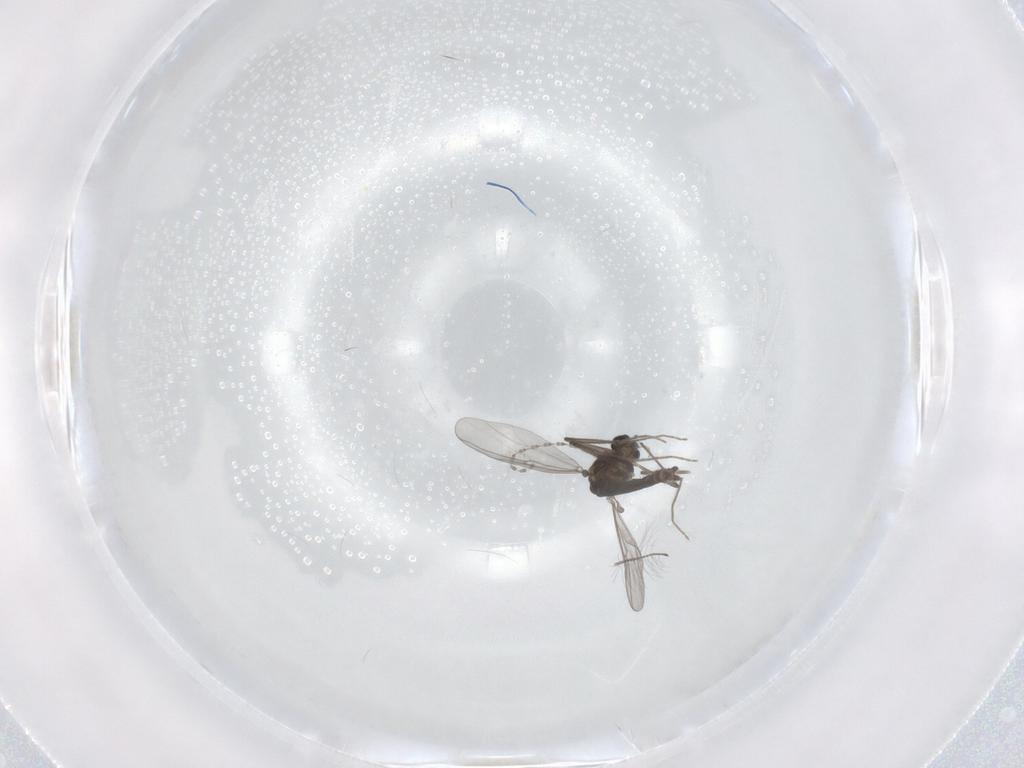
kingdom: Animalia
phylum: Arthropoda
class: Insecta
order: Diptera
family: Chironomidae
